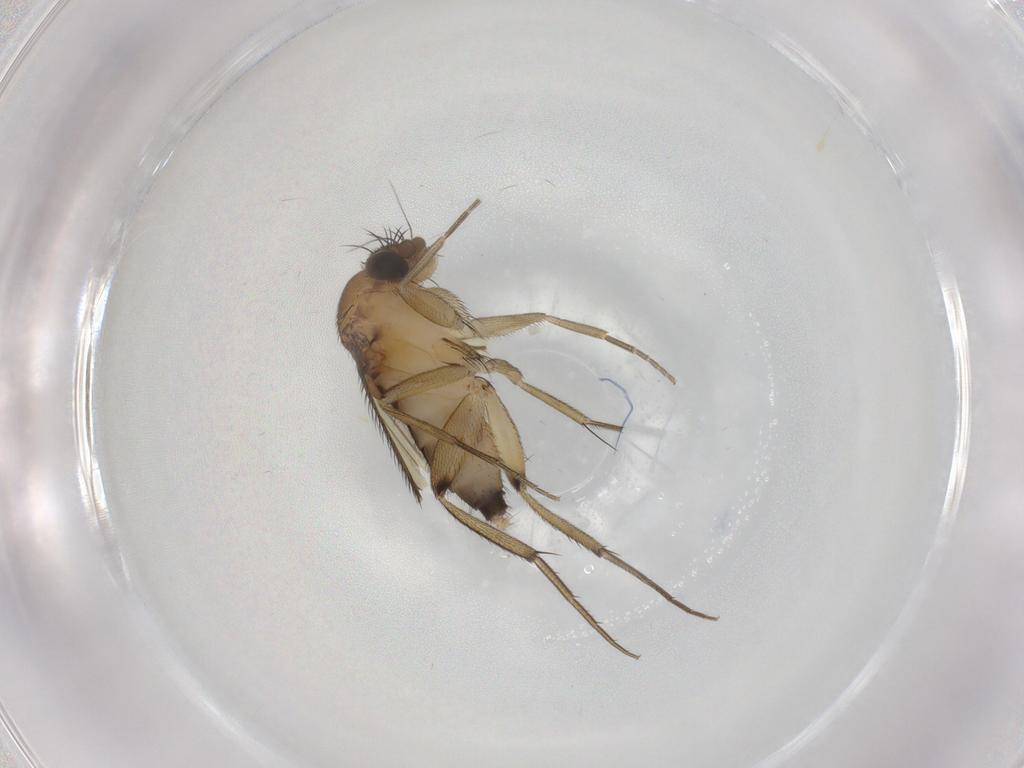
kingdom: Animalia
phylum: Arthropoda
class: Insecta
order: Diptera
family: Phoridae
